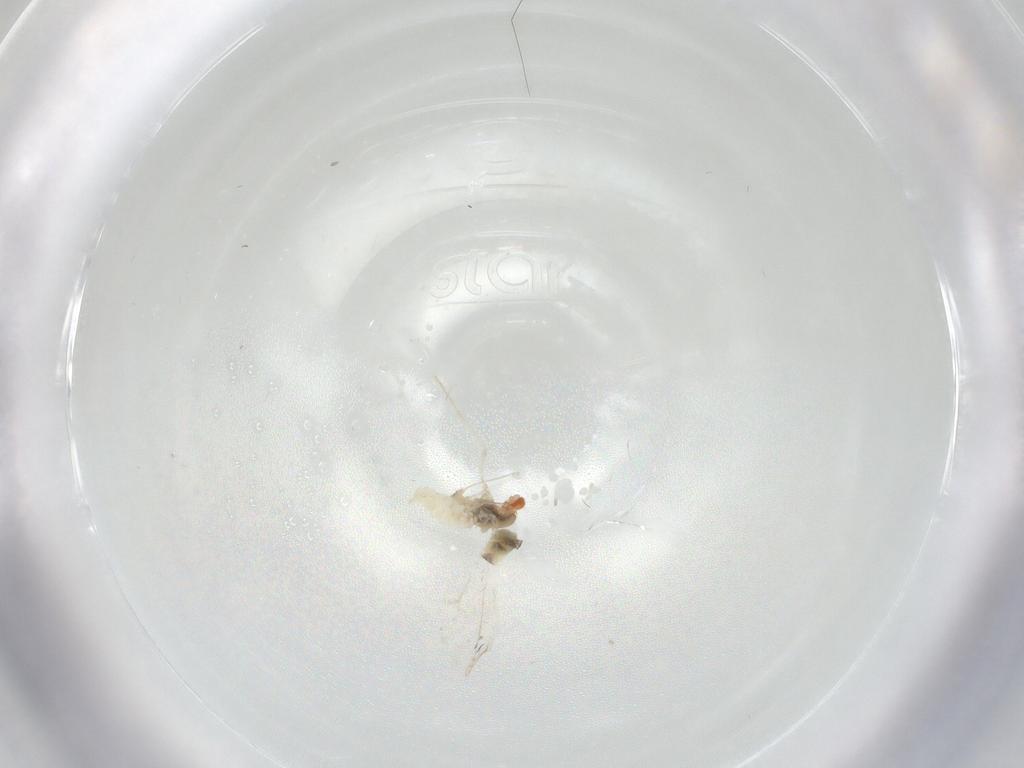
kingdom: Animalia
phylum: Arthropoda
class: Insecta
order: Diptera
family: Cecidomyiidae
